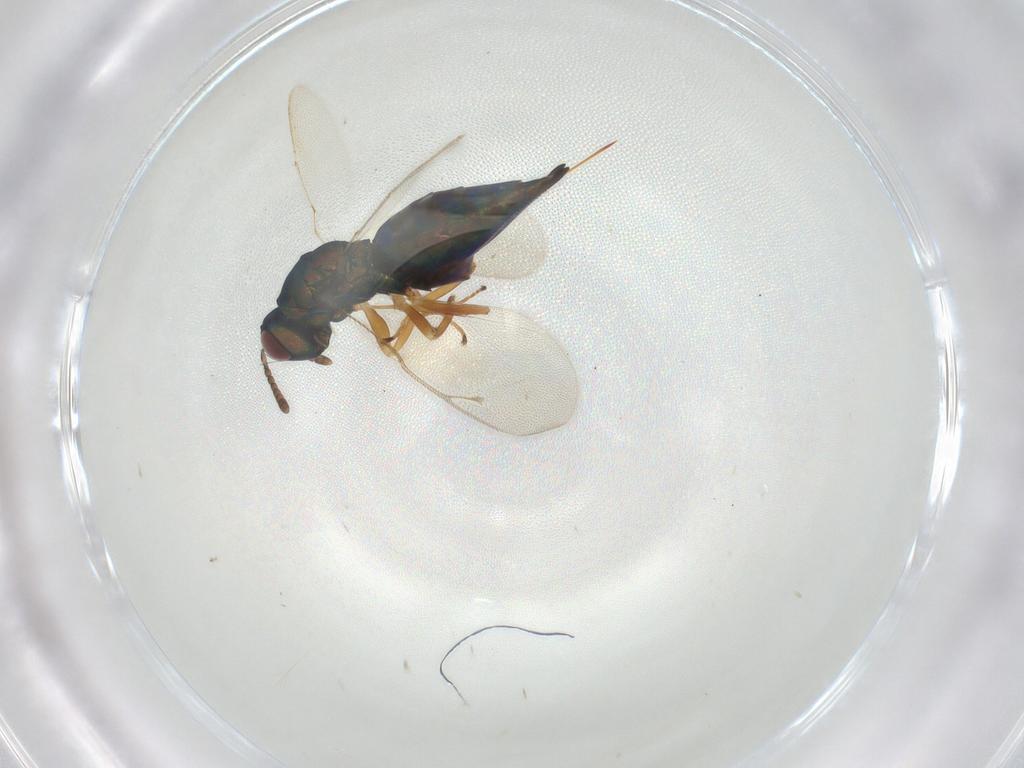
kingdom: Animalia
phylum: Arthropoda
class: Insecta
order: Hymenoptera
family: Pteromalidae
